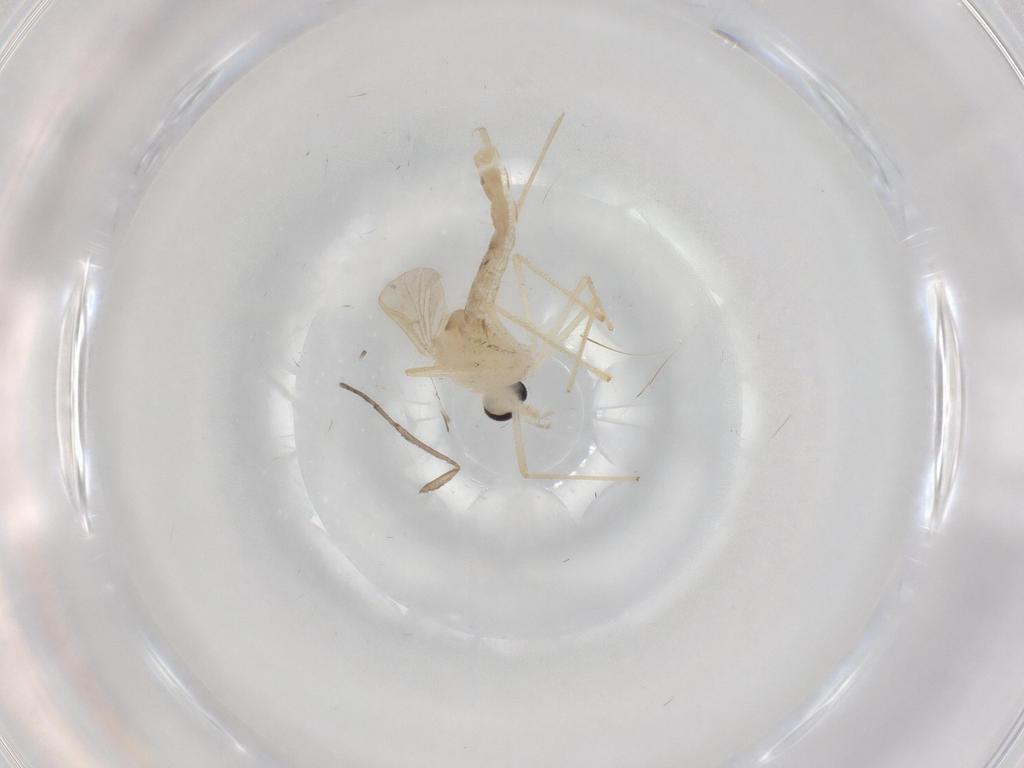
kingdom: Animalia
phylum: Arthropoda
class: Insecta
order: Diptera
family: Chironomidae
